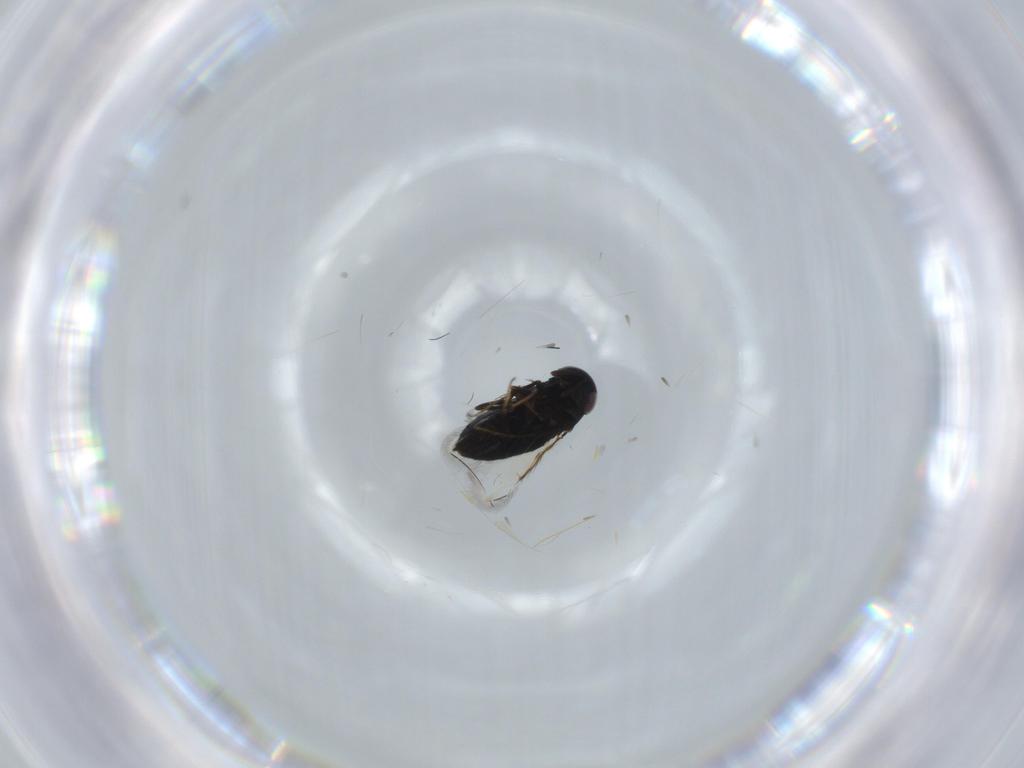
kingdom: Animalia
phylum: Arthropoda
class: Insecta
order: Hymenoptera
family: Signiphoridae
